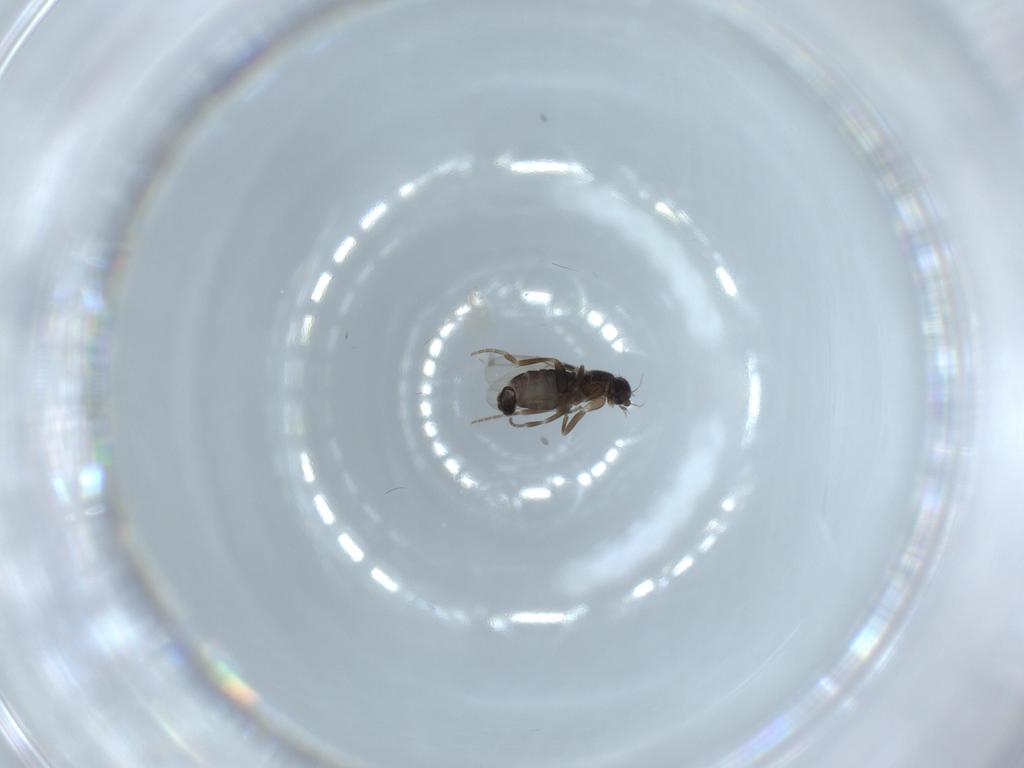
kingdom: Animalia
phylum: Arthropoda
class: Insecta
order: Diptera
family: Phoridae
